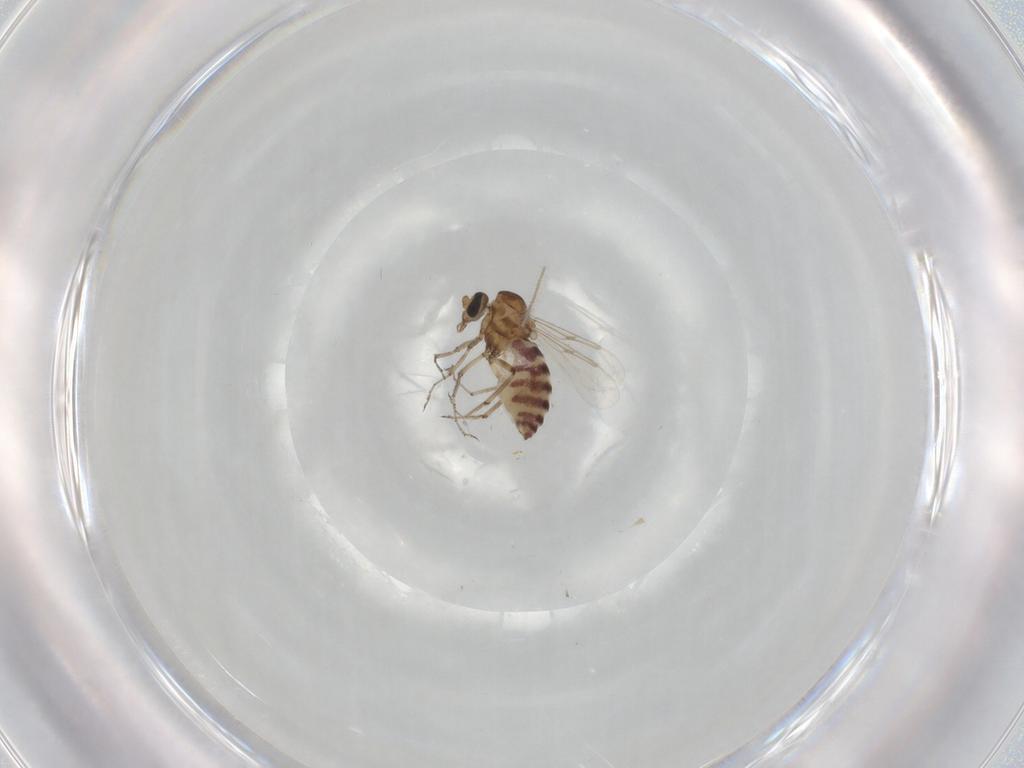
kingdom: Animalia
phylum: Arthropoda
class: Insecta
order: Diptera
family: Ceratopogonidae
